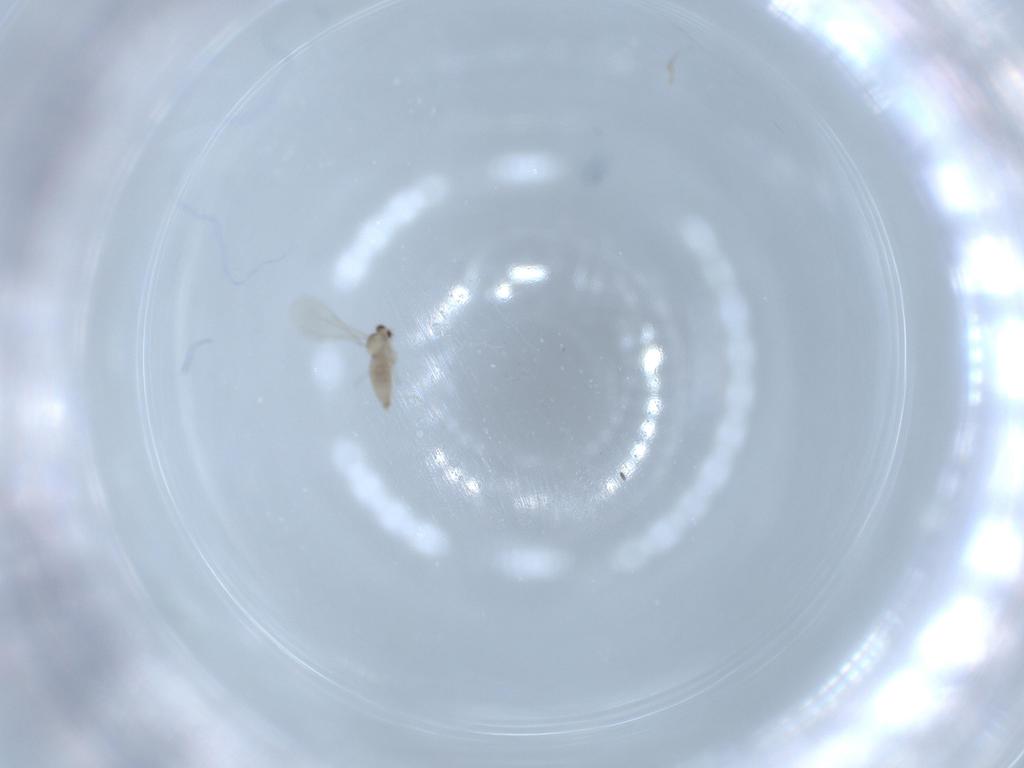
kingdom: Animalia
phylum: Arthropoda
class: Insecta
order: Diptera
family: Cecidomyiidae
